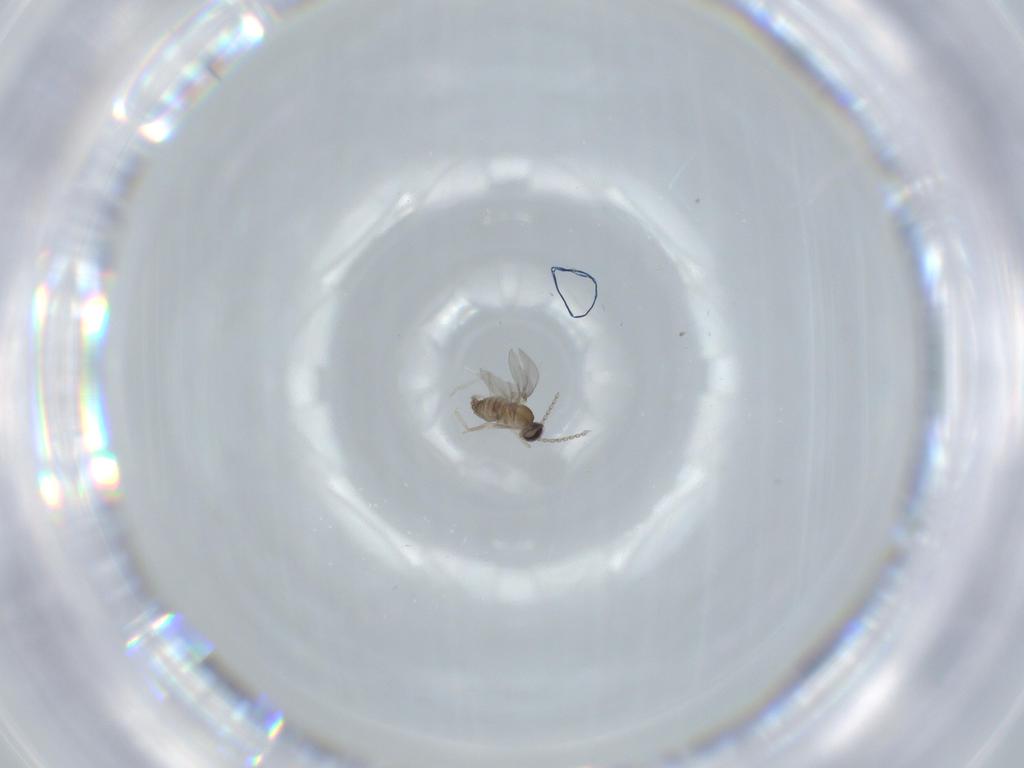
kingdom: Animalia
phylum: Arthropoda
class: Insecta
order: Diptera
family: Cecidomyiidae
